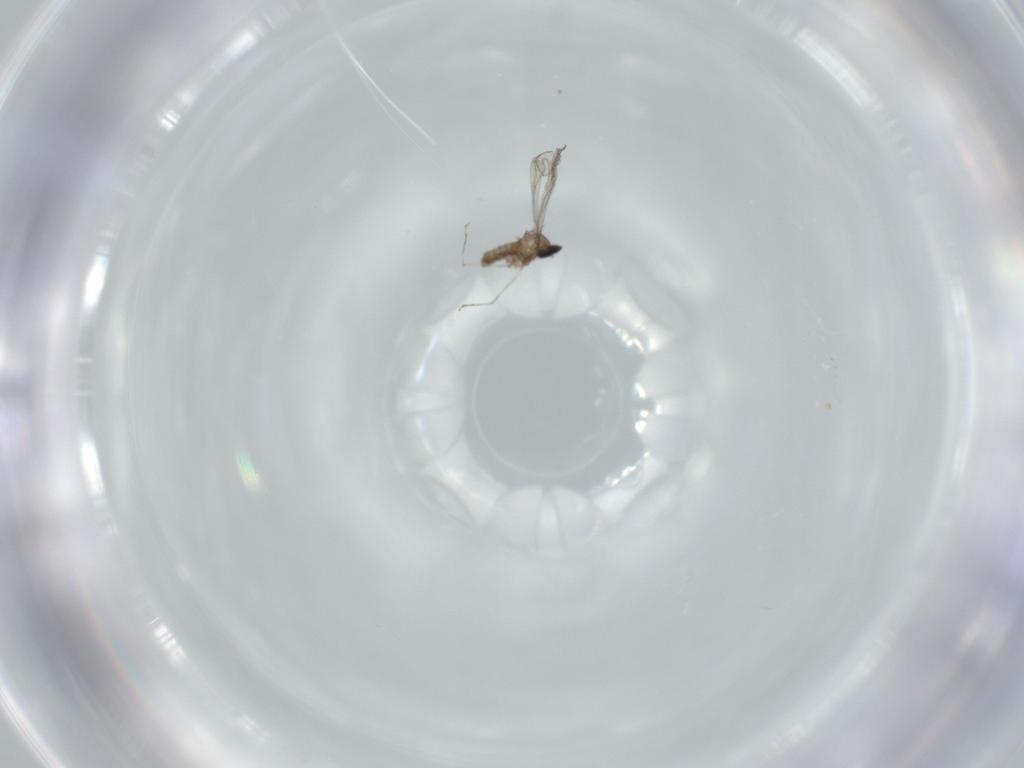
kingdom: Animalia
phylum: Arthropoda
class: Insecta
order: Diptera
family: Cecidomyiidae
